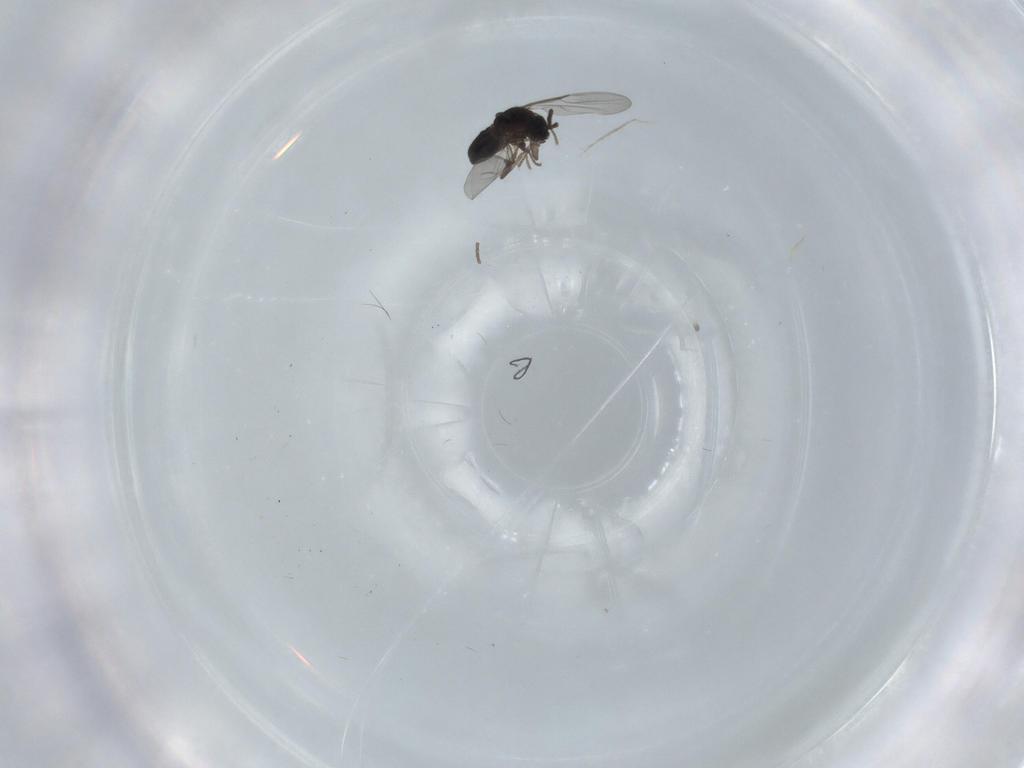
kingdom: Animalia
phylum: Arthropoda
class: Insecta
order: Diptera
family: Scatopsidae
